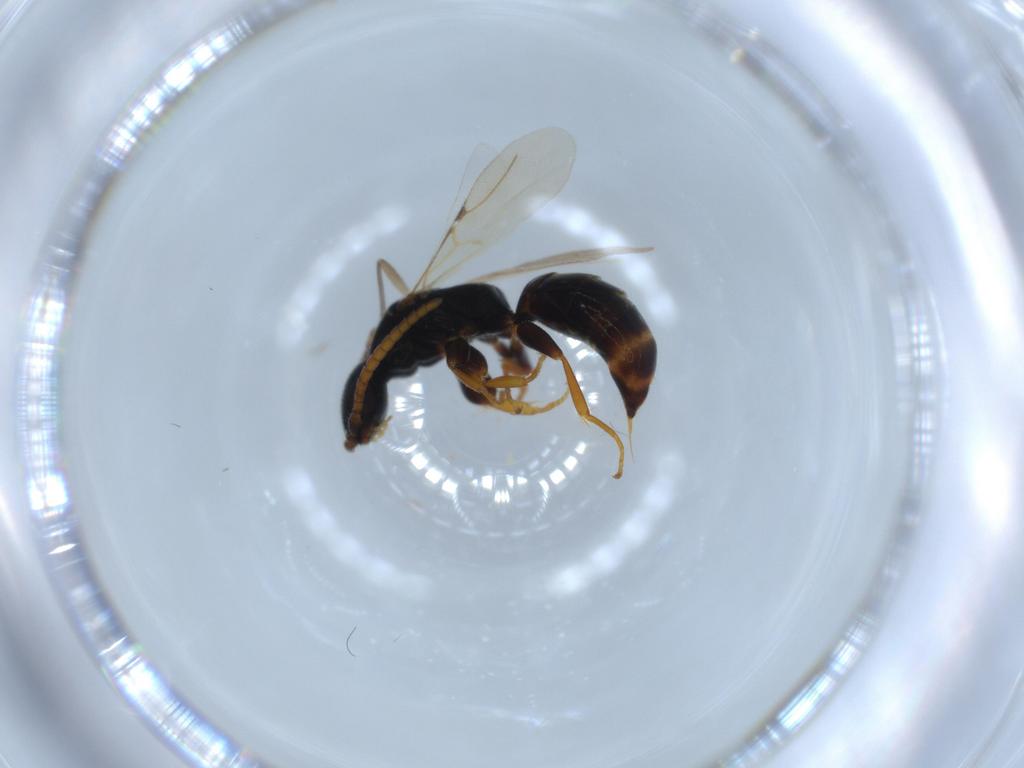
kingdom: Animalia
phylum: Arthropoda
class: Insecta
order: Hymenoptera
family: Bethylidae
